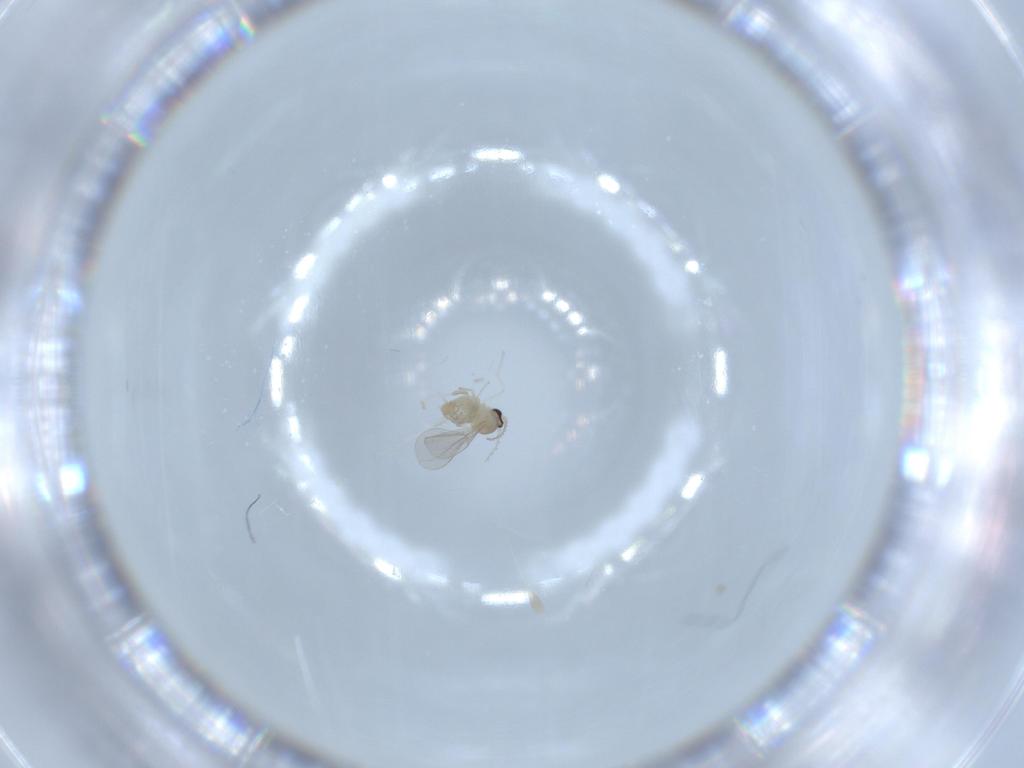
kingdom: Animalia
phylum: Arthropoda
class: Insecta
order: Diptera
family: Cecidomyiidae
